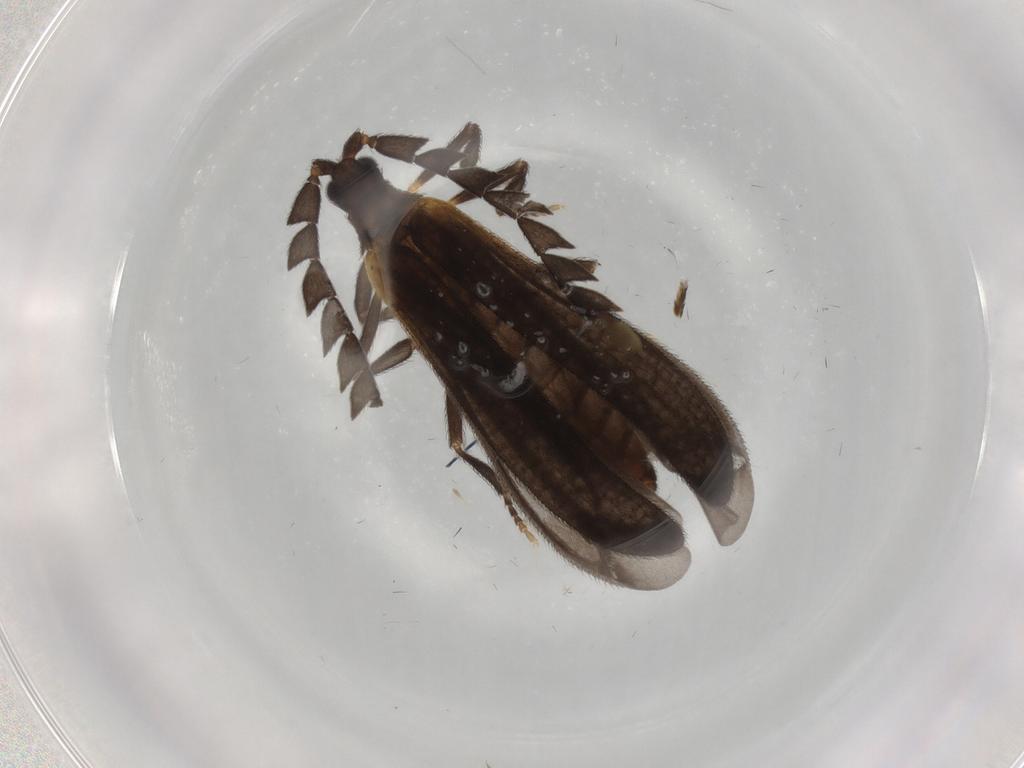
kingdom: Animalia
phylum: Arthropoda
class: Insecta
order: Coleoptera
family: Lycidae
